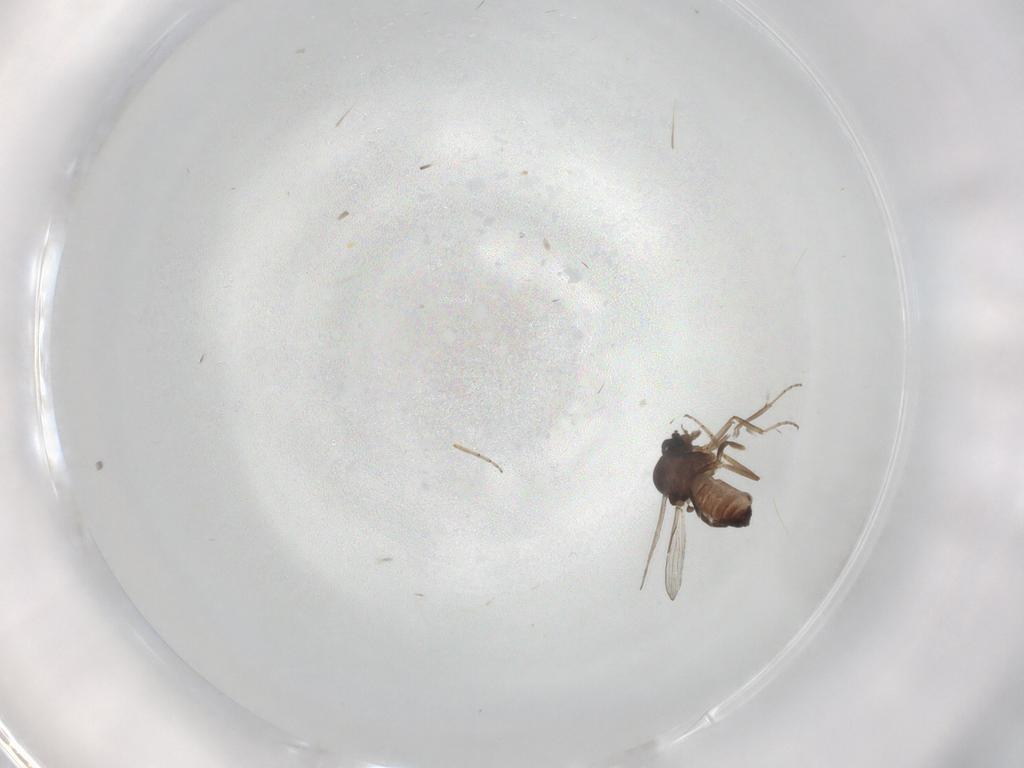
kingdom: Animalia
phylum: Arthropoda
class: Insecta
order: Diptera
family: Ceratopogonidae
